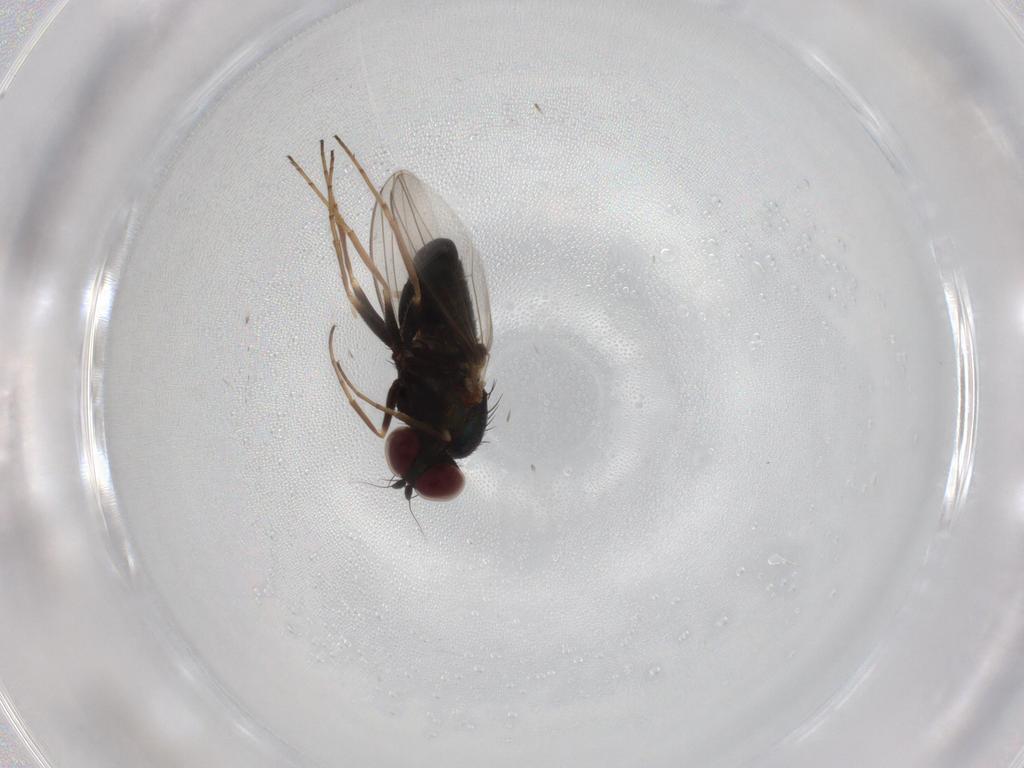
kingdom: Animalia
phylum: Arthropoda
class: Insecta
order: Diptera
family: Dolichopodidae
